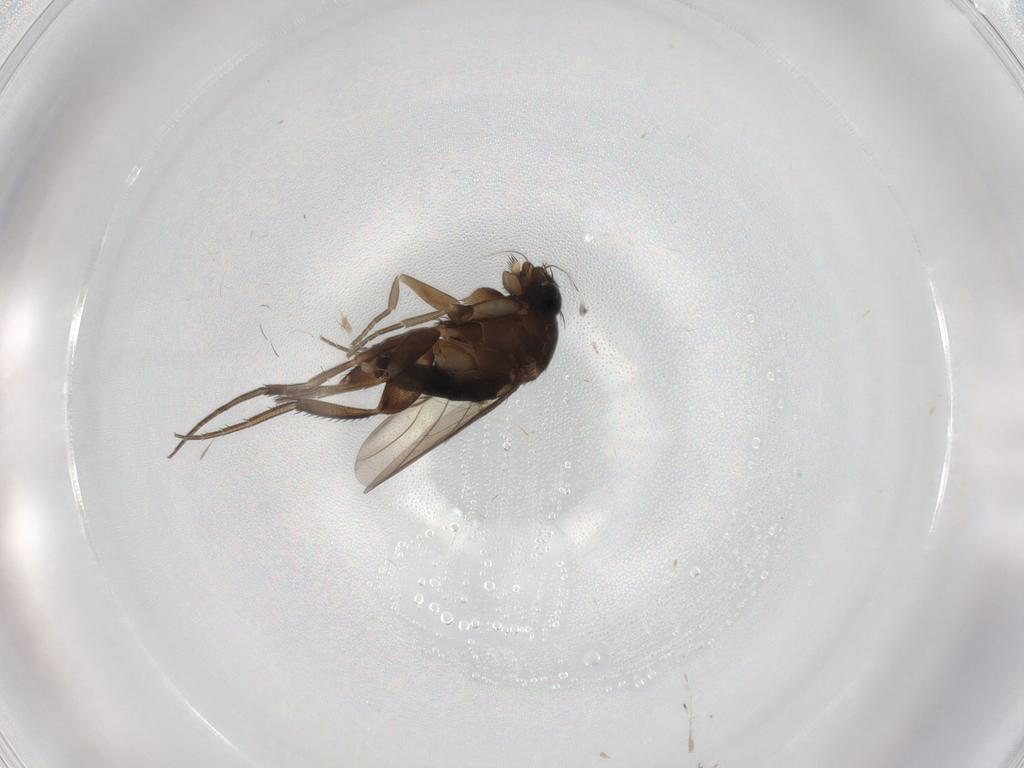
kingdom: Animalia
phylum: Arthropoda
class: Insecta
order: Diptera
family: Phoridae
